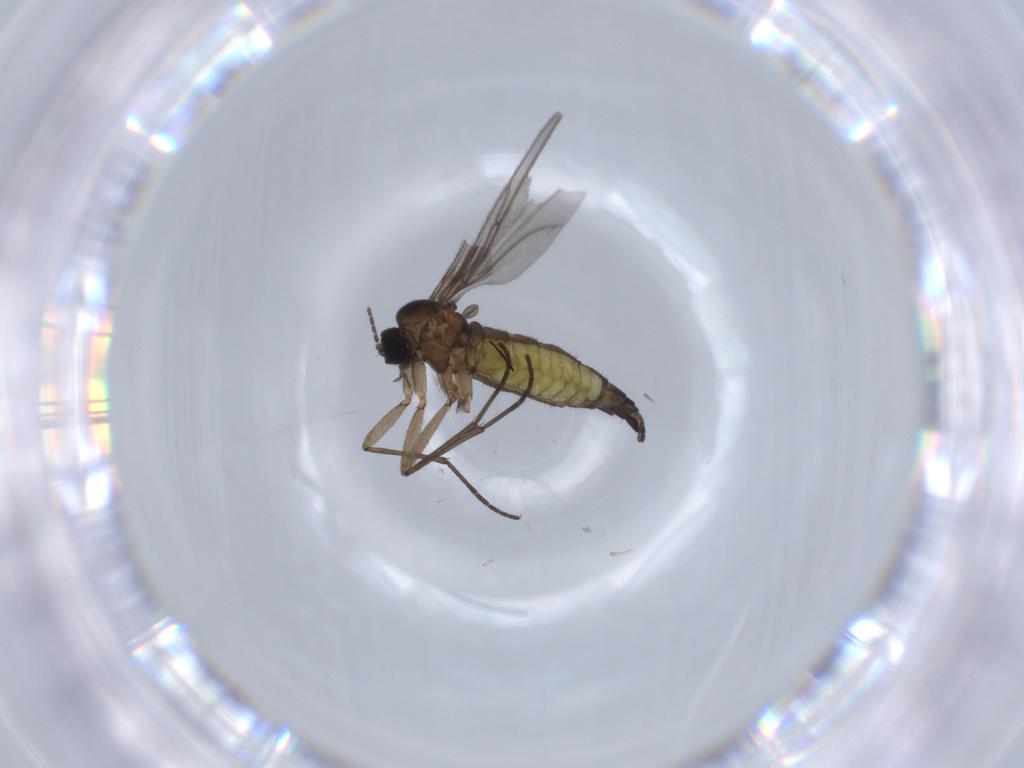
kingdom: Animalia
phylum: Arthropoda
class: Insecta
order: Diptera
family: Sciaridae
